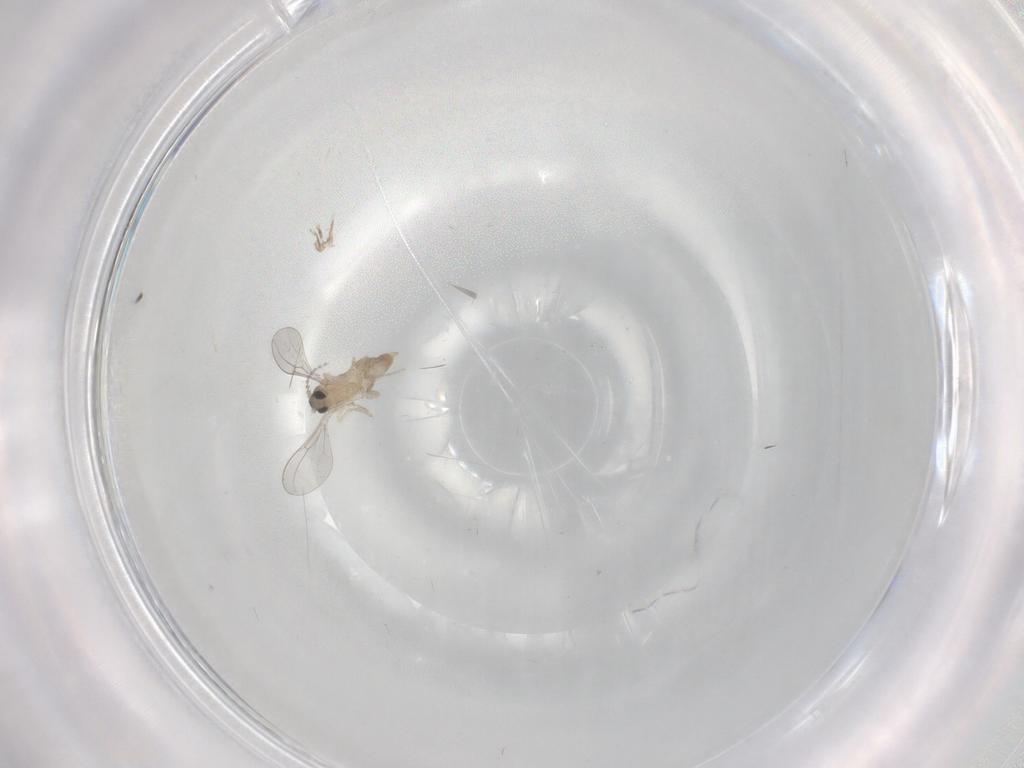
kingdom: Animalia
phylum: Arthropoda
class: Insecta
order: Diptera
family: Cecidomyiidae
